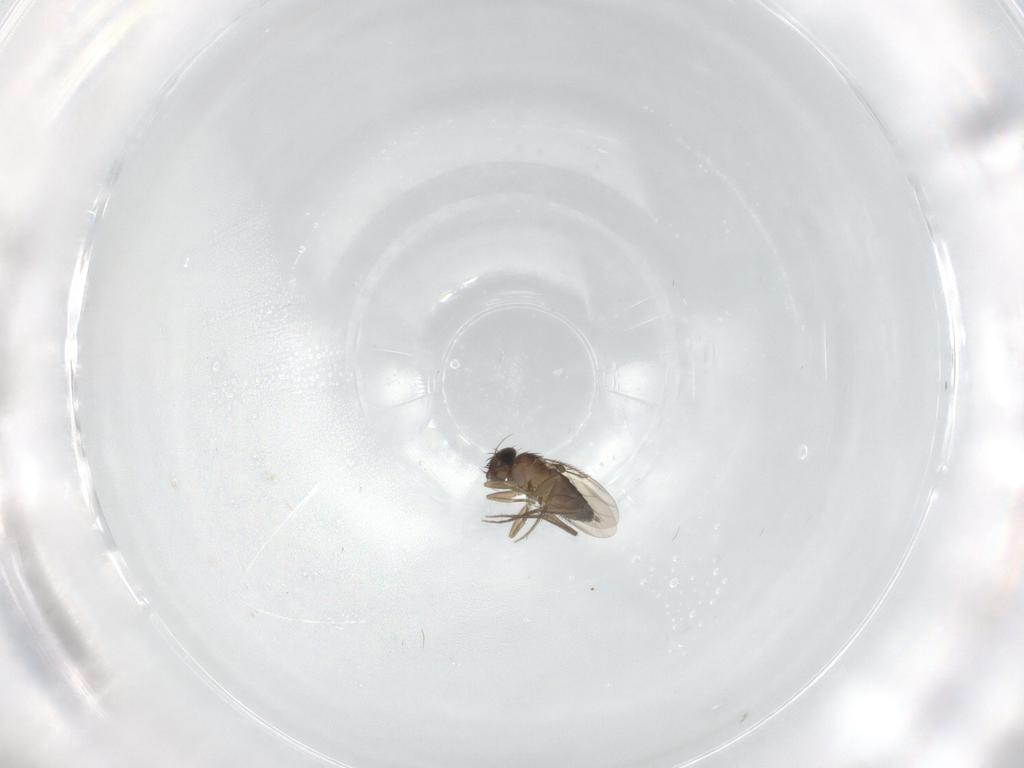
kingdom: Animalia
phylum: Arthropoda
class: Insecta
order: Diptera
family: Phoridae
